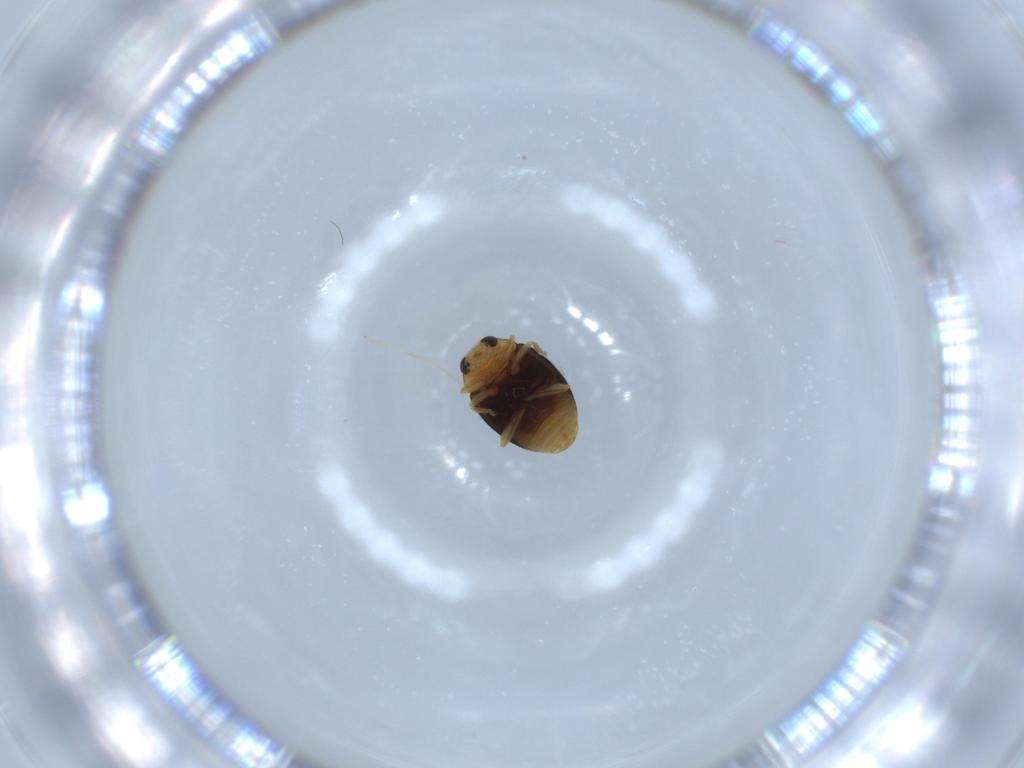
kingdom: Animalia
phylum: Arthropoda
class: Insecta
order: Coleoptera
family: Coccinellidae
